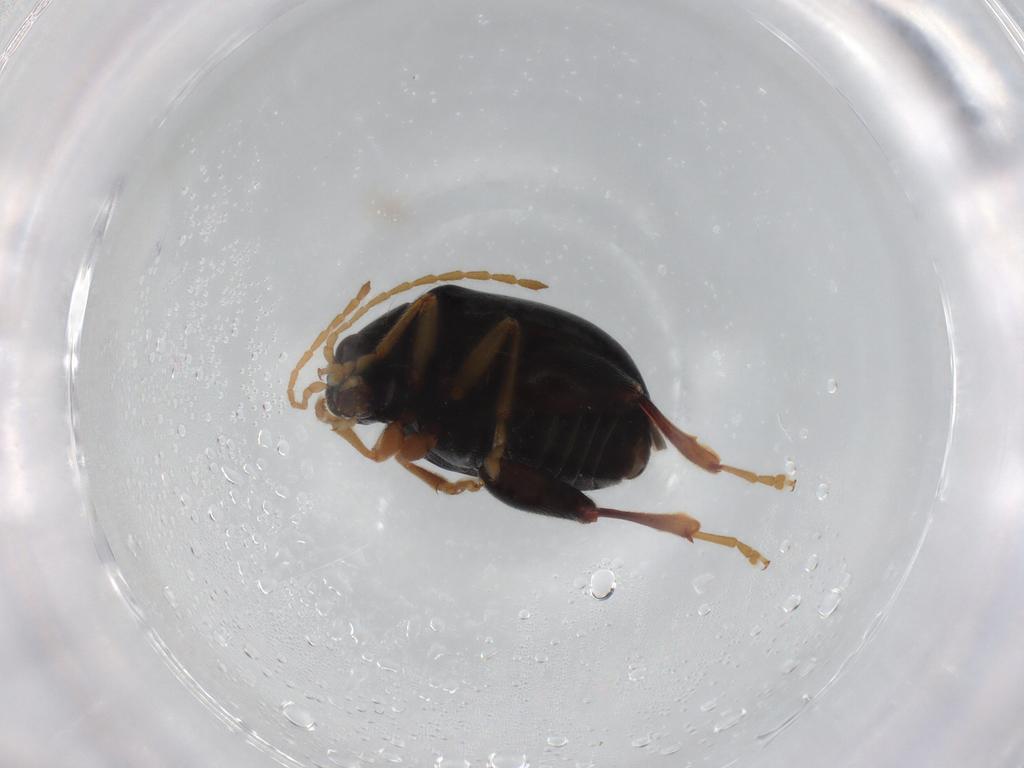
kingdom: Animalia
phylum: Arthropoda
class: Insecta
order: Coleoptera
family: Chrysomelidae
